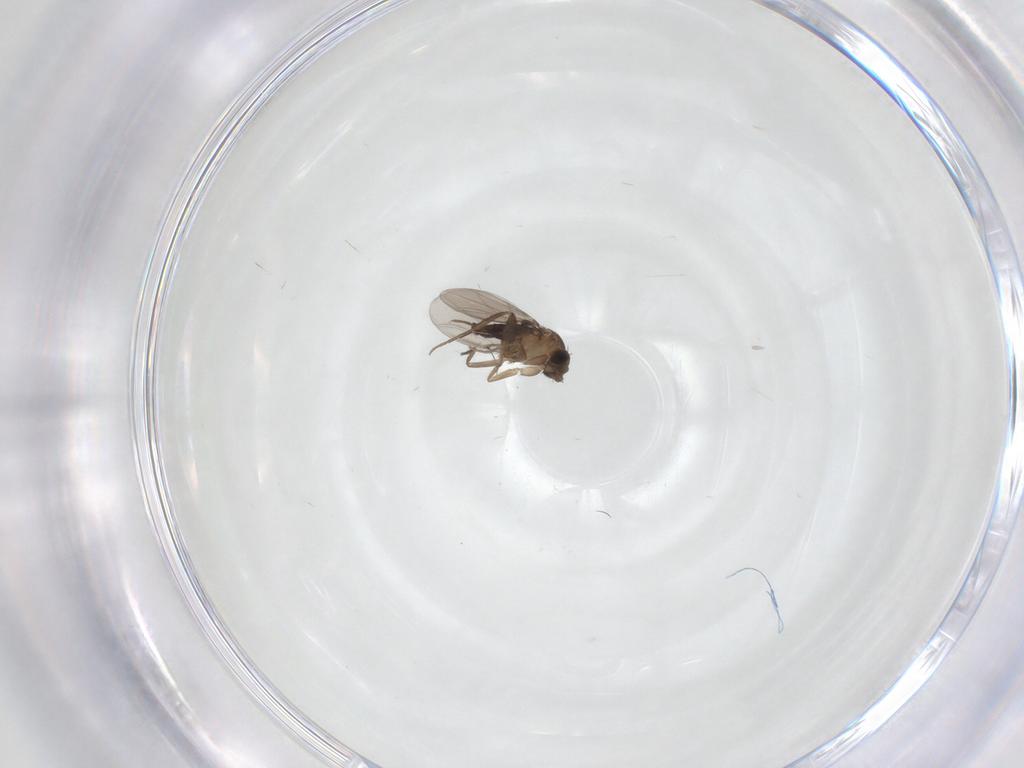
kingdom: Animalia
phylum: Arthropoda
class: Insecta
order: Diptera
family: Phoridae
